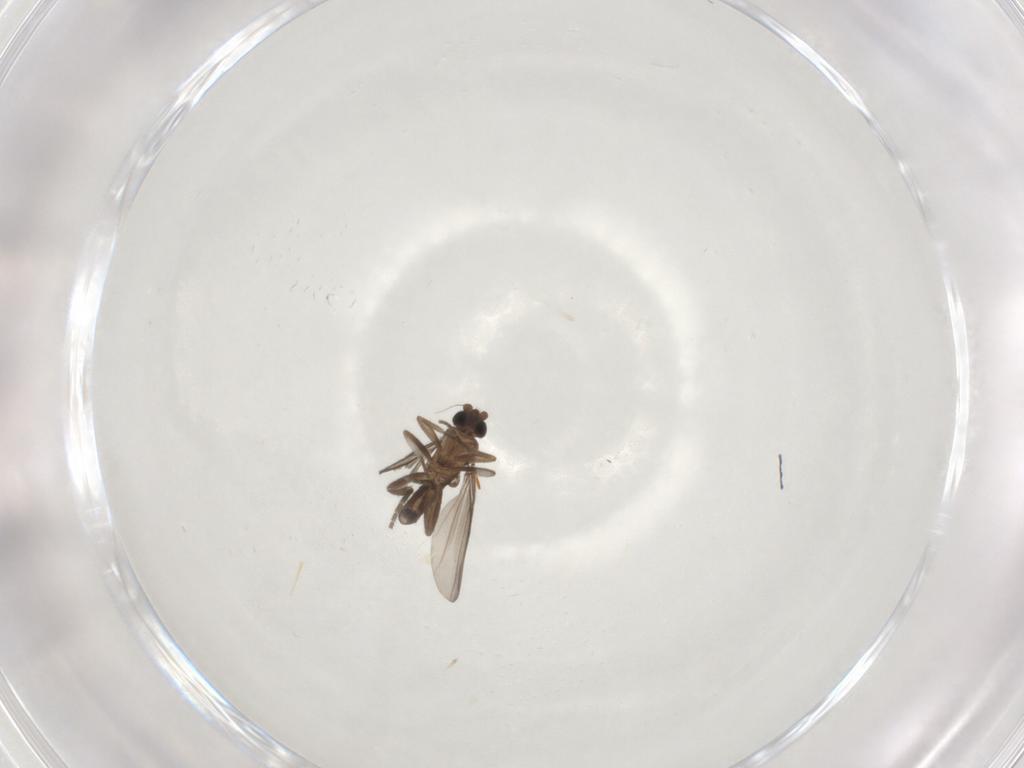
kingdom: Animalia
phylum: Arthropoda
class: Insecta
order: Diptera
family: Phoridae
